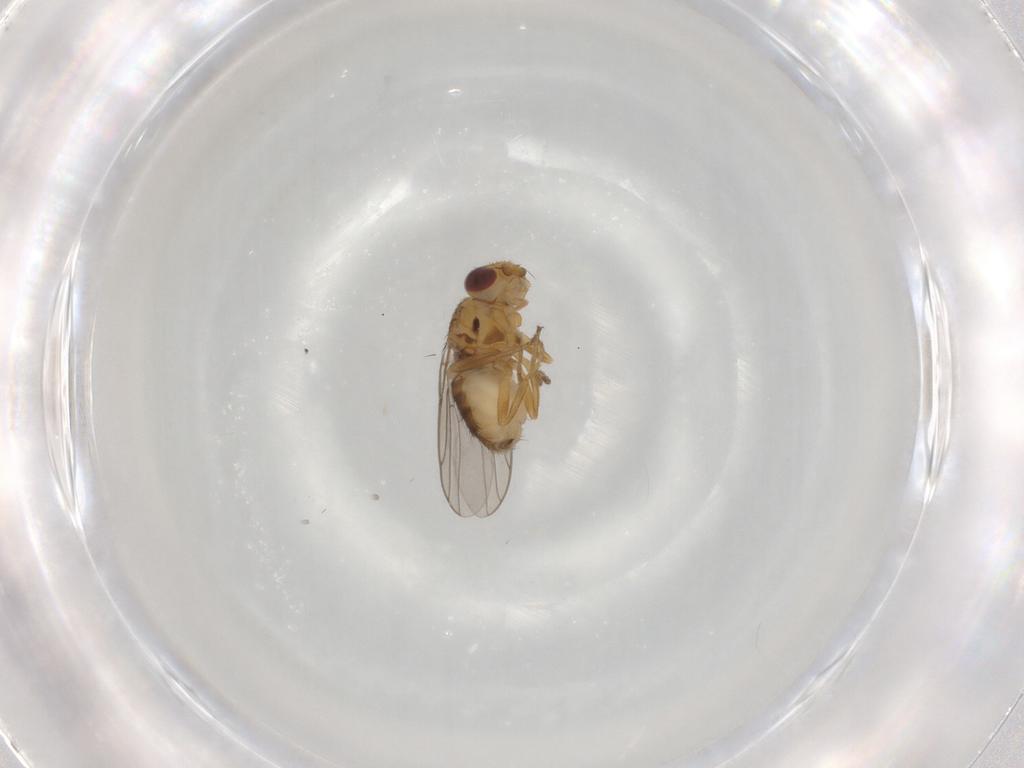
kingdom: Animalia
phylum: Arthropoda
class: Insecta
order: Diptera
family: Chloropidae
